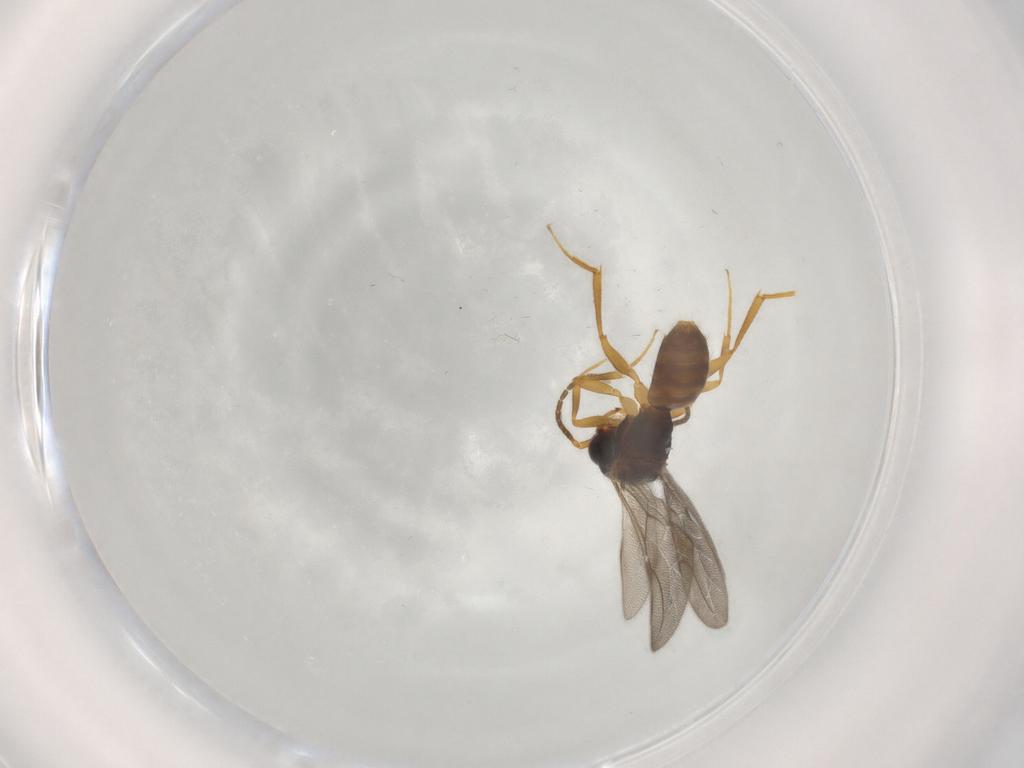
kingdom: Animalia
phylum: Arthropoda
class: Insecta
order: Hymenoptera
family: Bethylidae
